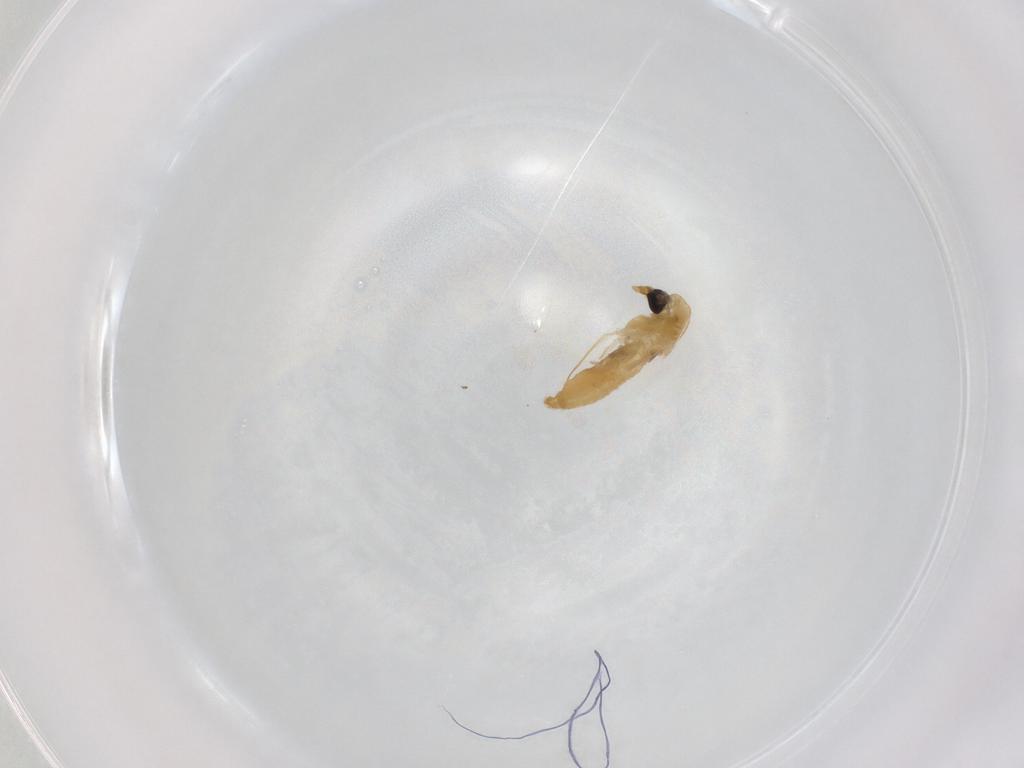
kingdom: Animalia
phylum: Arthropoda
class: Insecta
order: Diptera
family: Chironomidae
